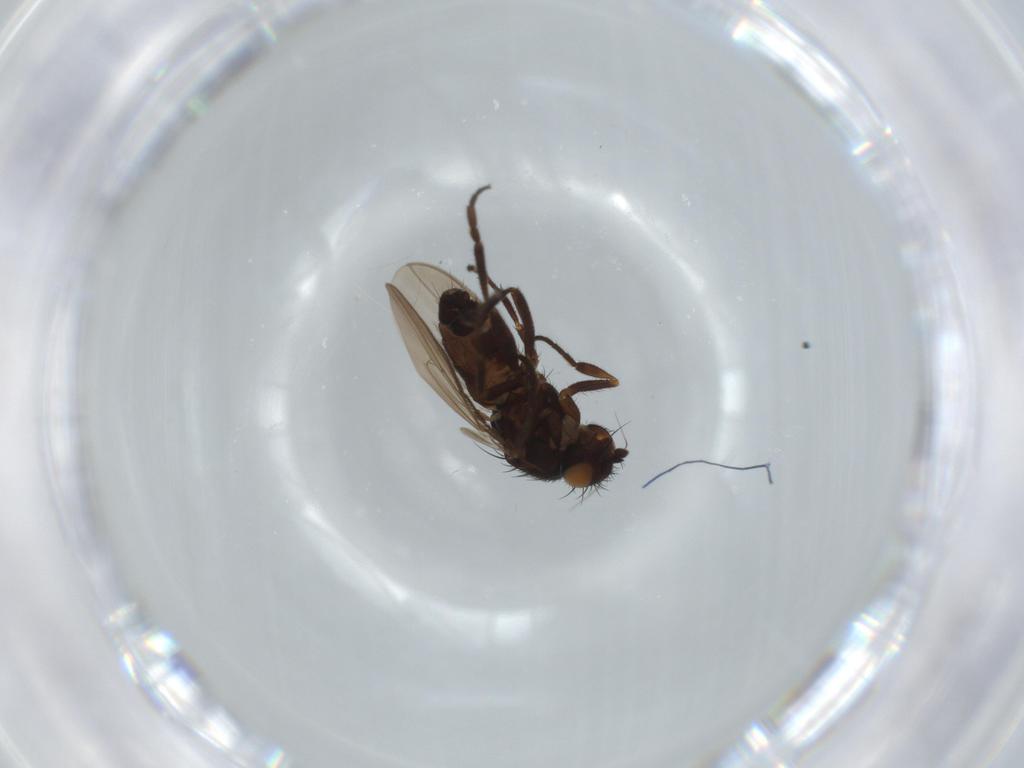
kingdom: Animalia
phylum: Arthropoda
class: Insecta
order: Diptera
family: Sphaeroceridae
